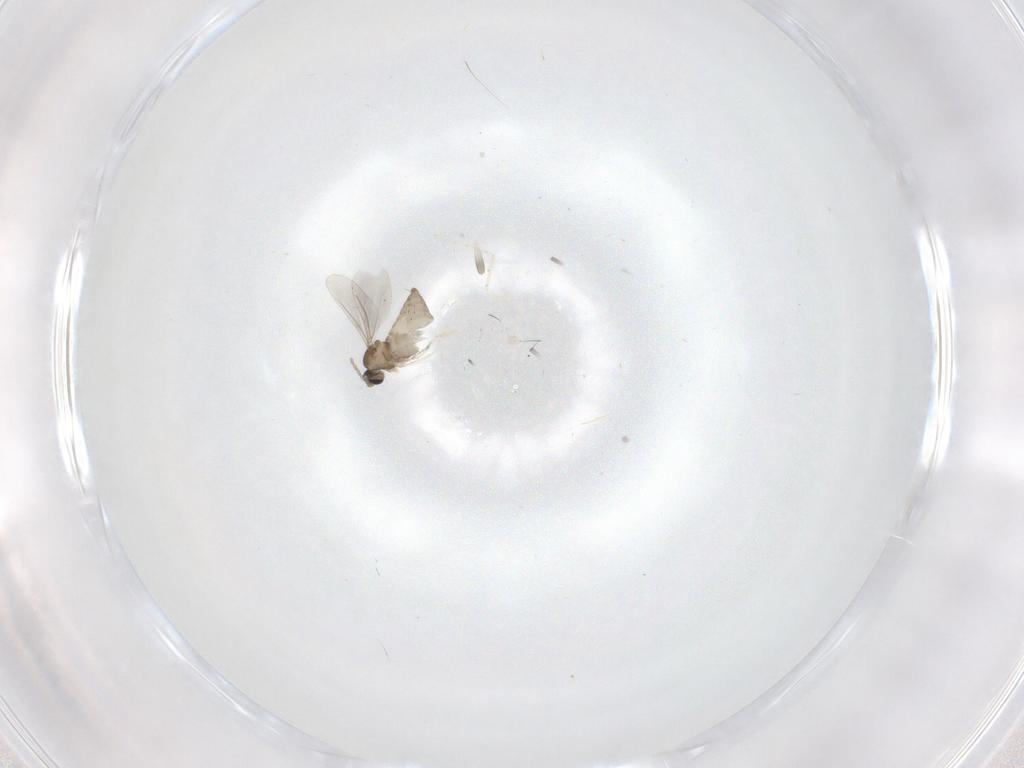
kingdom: Animalia
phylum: Arthropoda
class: Insecta
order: Diptera
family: Cecidomyiidae
